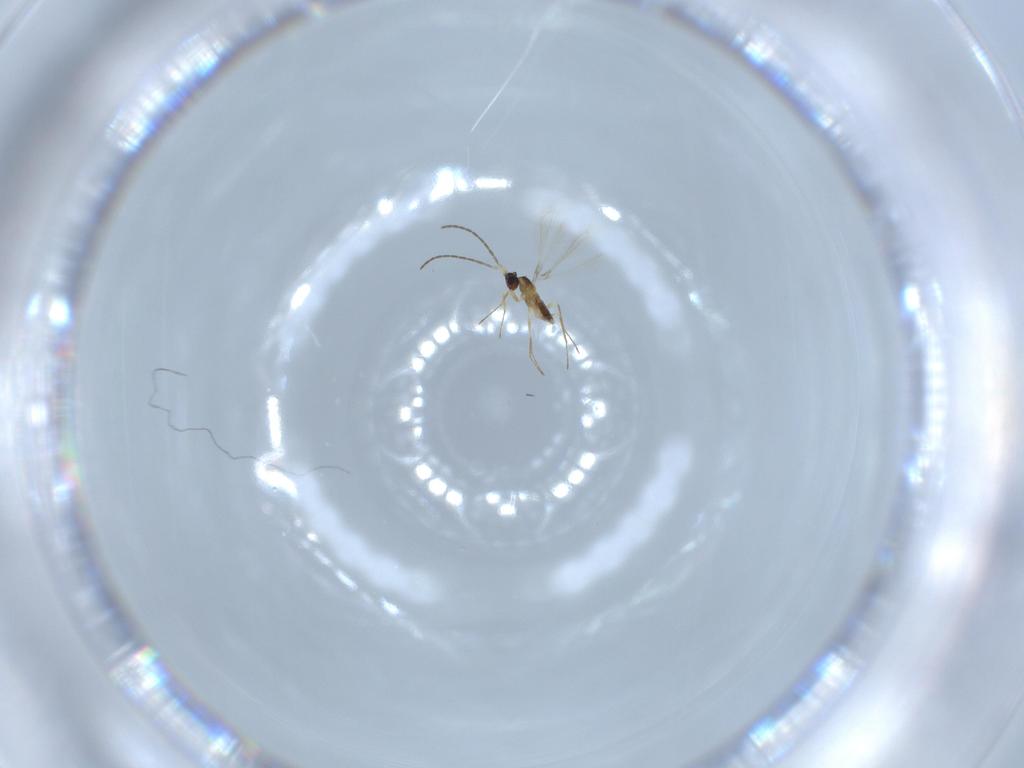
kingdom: Animalia
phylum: Arthropoda
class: Insecta
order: Hymenoptera
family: Mymaridae
